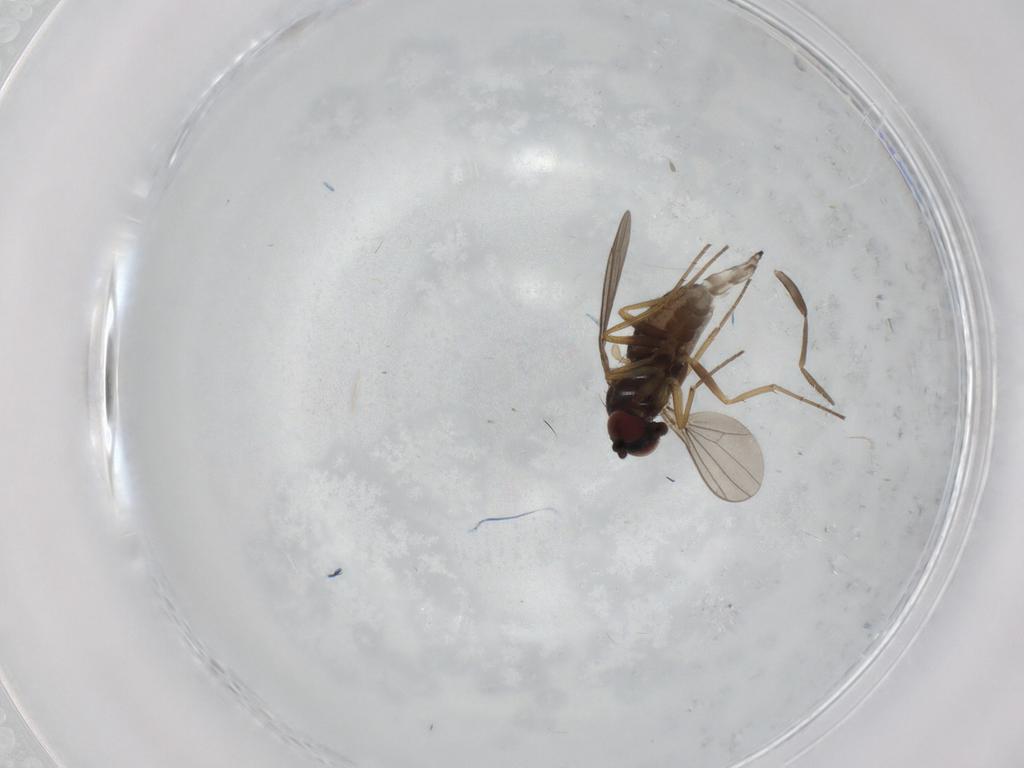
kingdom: Animalia
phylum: Arthropoda
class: Insecta
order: Diptera
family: Dolichopodidae
